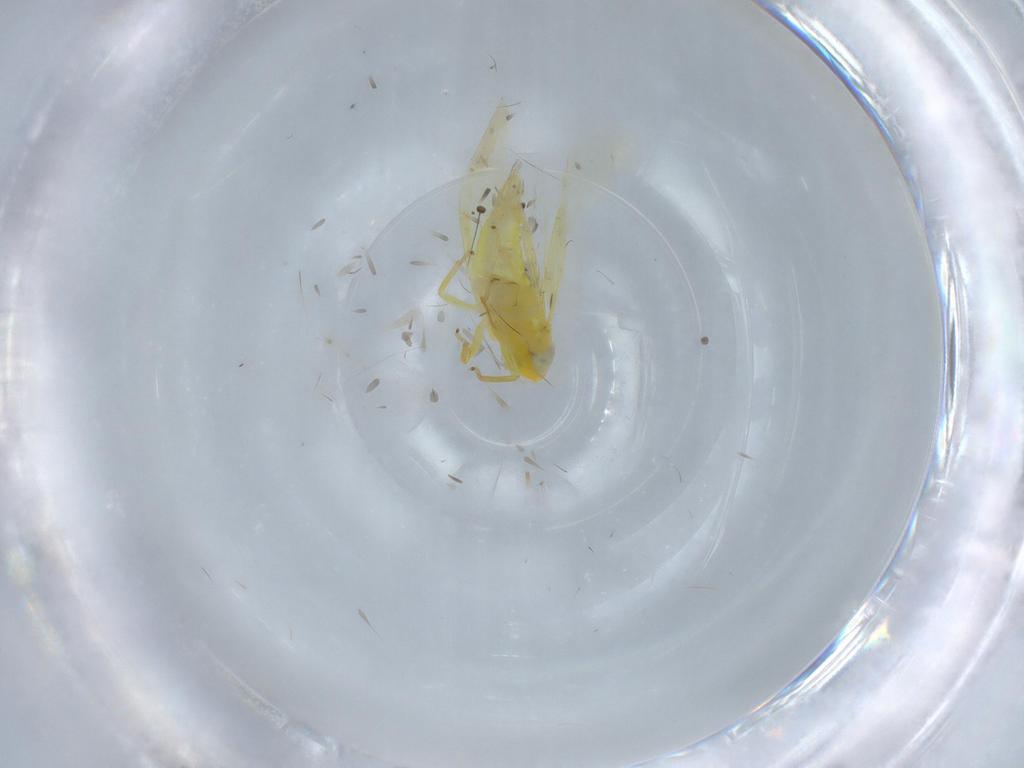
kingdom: Animalia
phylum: Arthropoda
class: Insecta
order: Hemiptera
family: Cicadellidae
